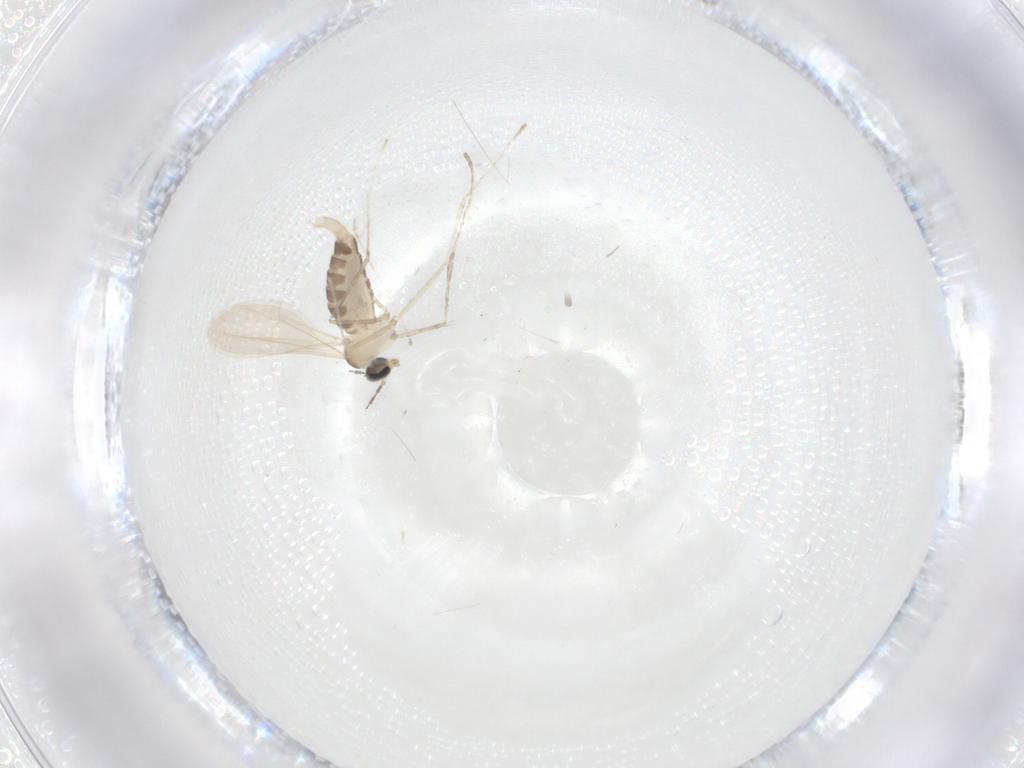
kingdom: Animalia
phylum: Arthropoda
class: Insecta
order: Diptera
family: Cecidomyiidae
